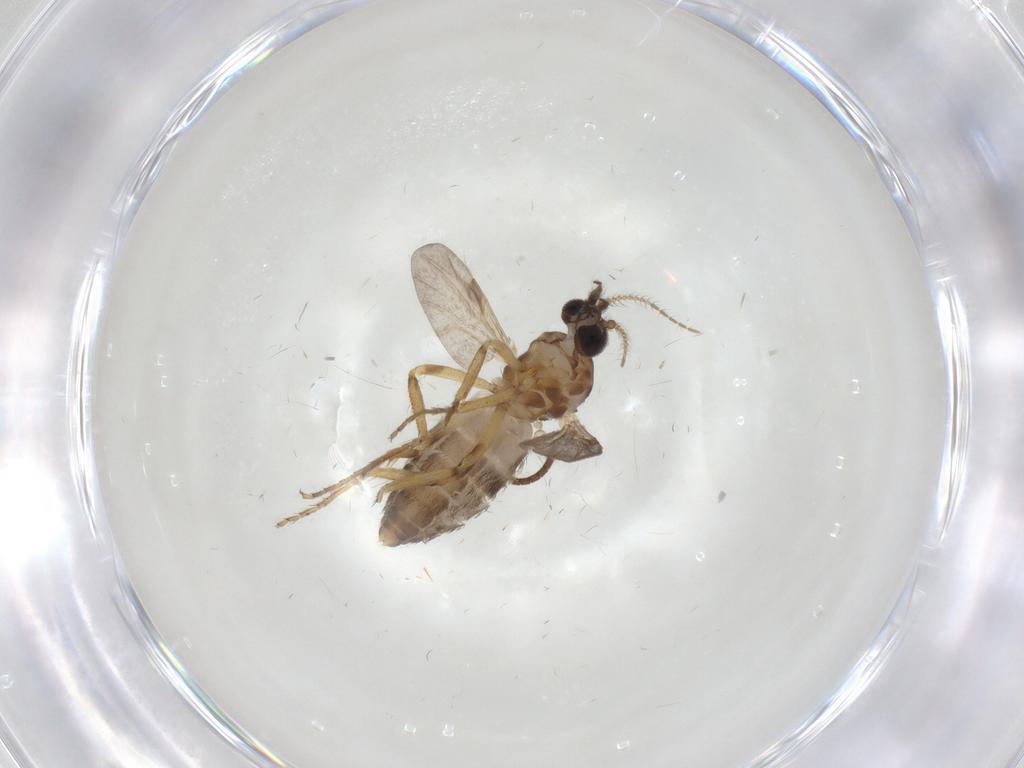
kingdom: Animalia
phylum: Arthropoda
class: Insecta
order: Diptera
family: Ceratopogonidae
